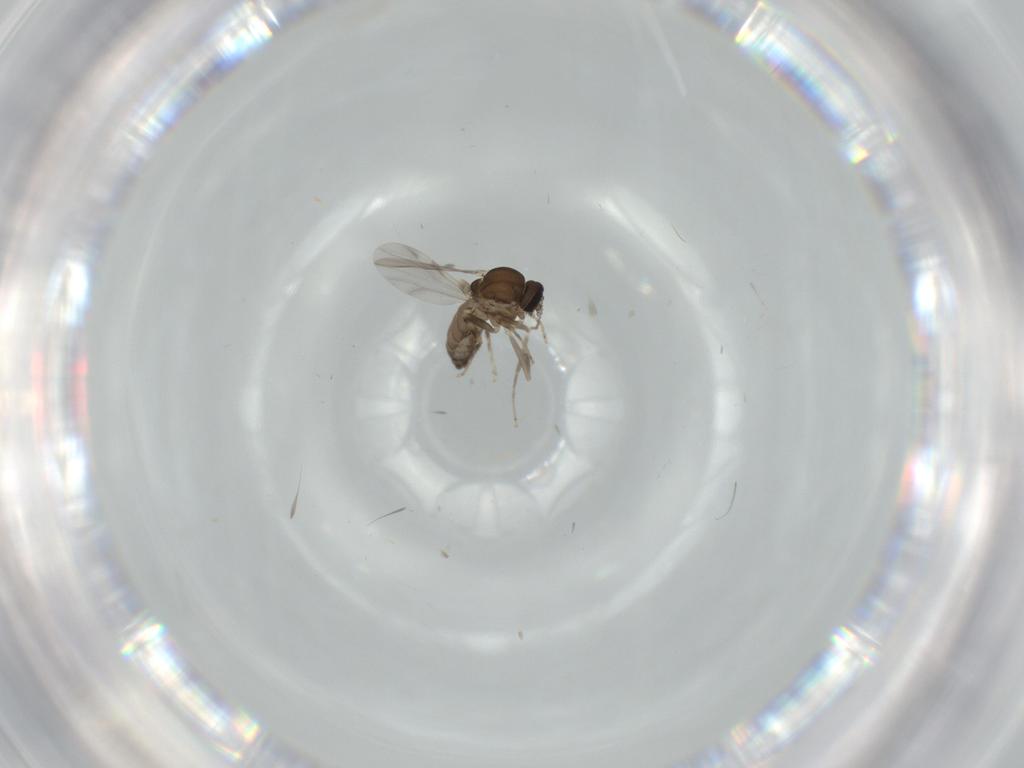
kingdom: Animalia
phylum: Arthropoda
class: Insecta
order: Diptera
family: Ceratopogonidae
